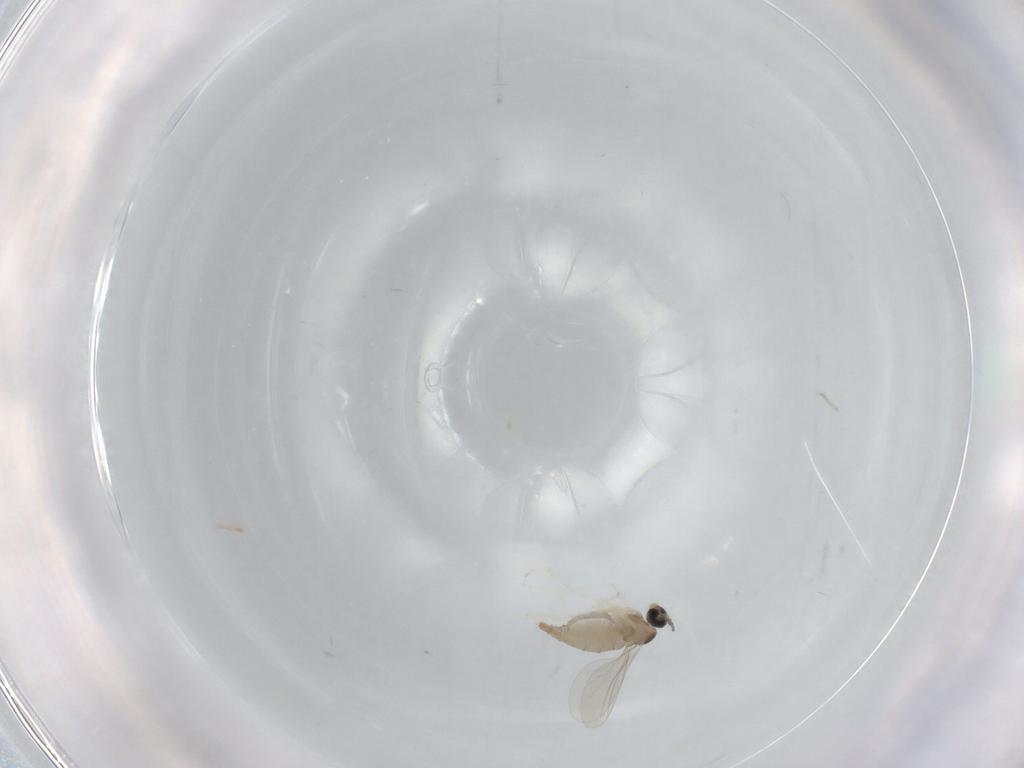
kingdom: Animalia
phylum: Arthropoda
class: Insecta
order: Diptera
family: Cecidomyiidae
